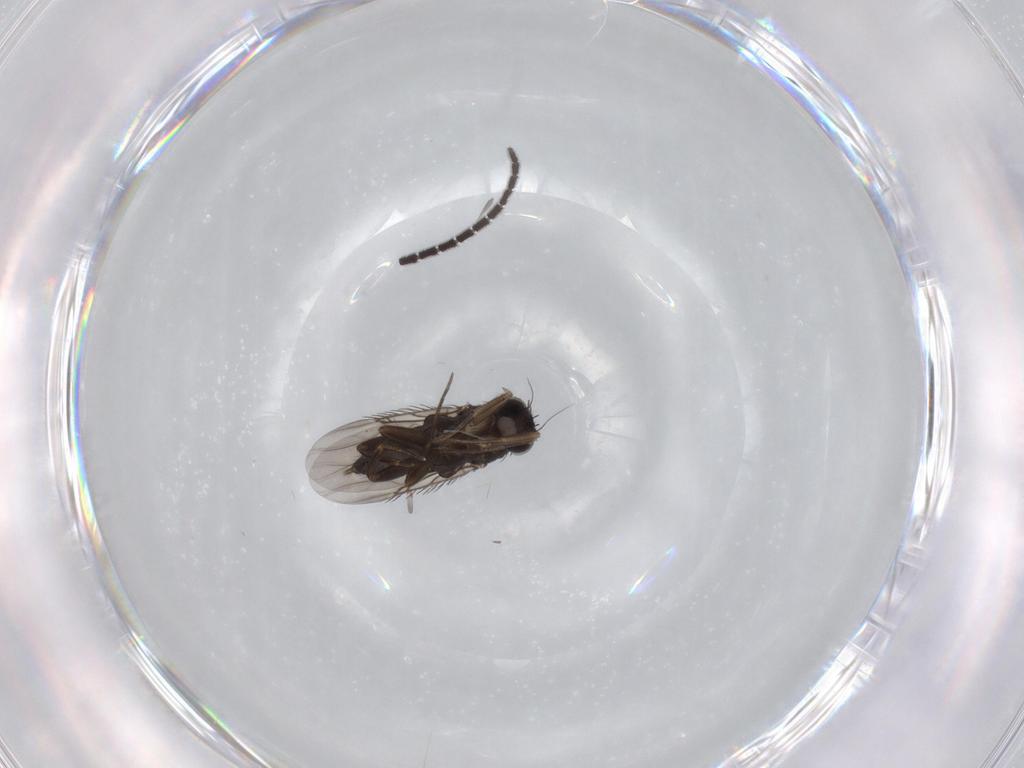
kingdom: Animalia
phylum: Arthropoda
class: Insecta
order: Diptera
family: Phoridae
